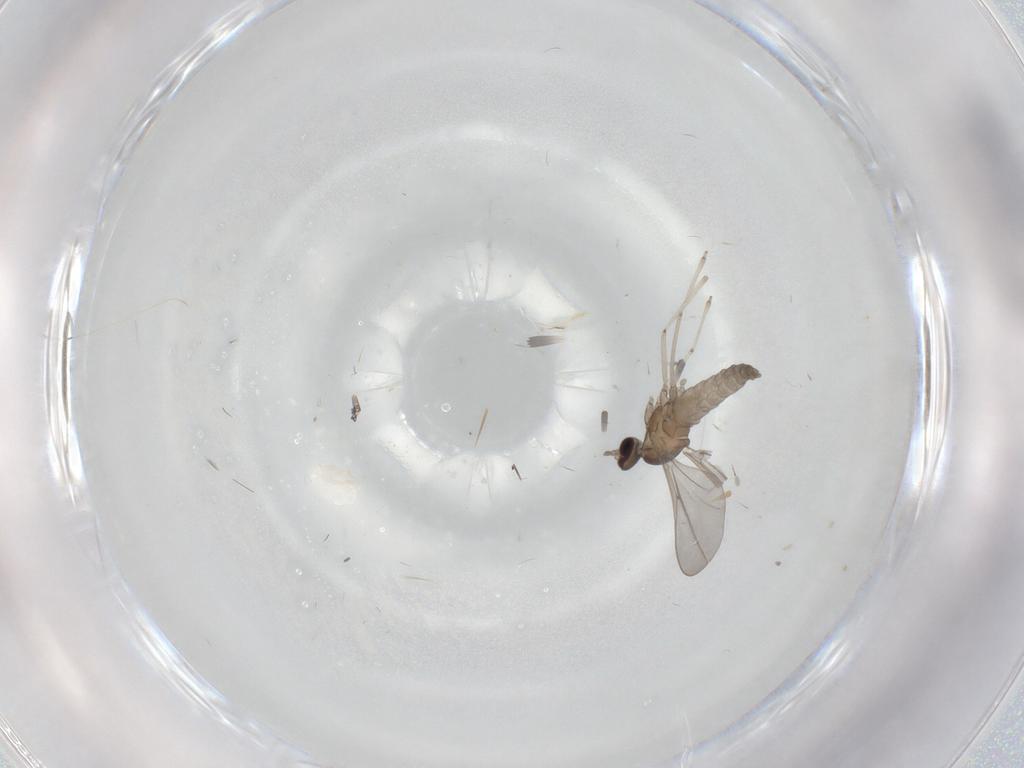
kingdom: Animalia
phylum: Arthropoda
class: Insecta
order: Diptera
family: Cecidomyiidae
